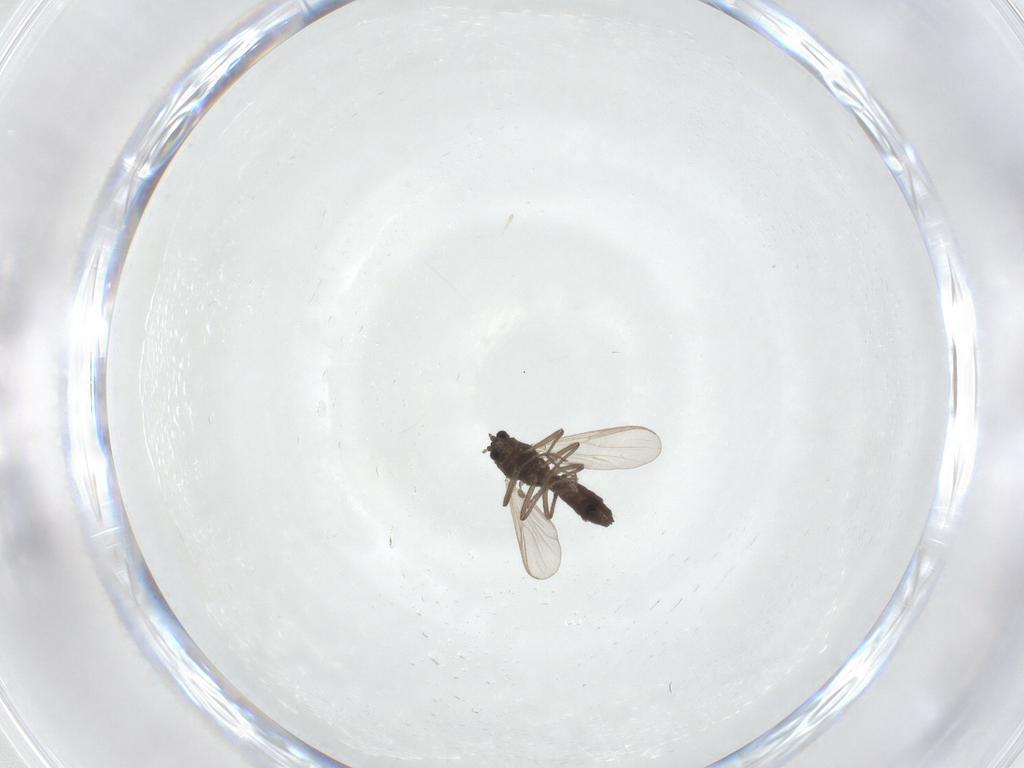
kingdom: Animalia
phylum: Arthropoda
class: Insecta
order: Diptera
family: Chironomidae
